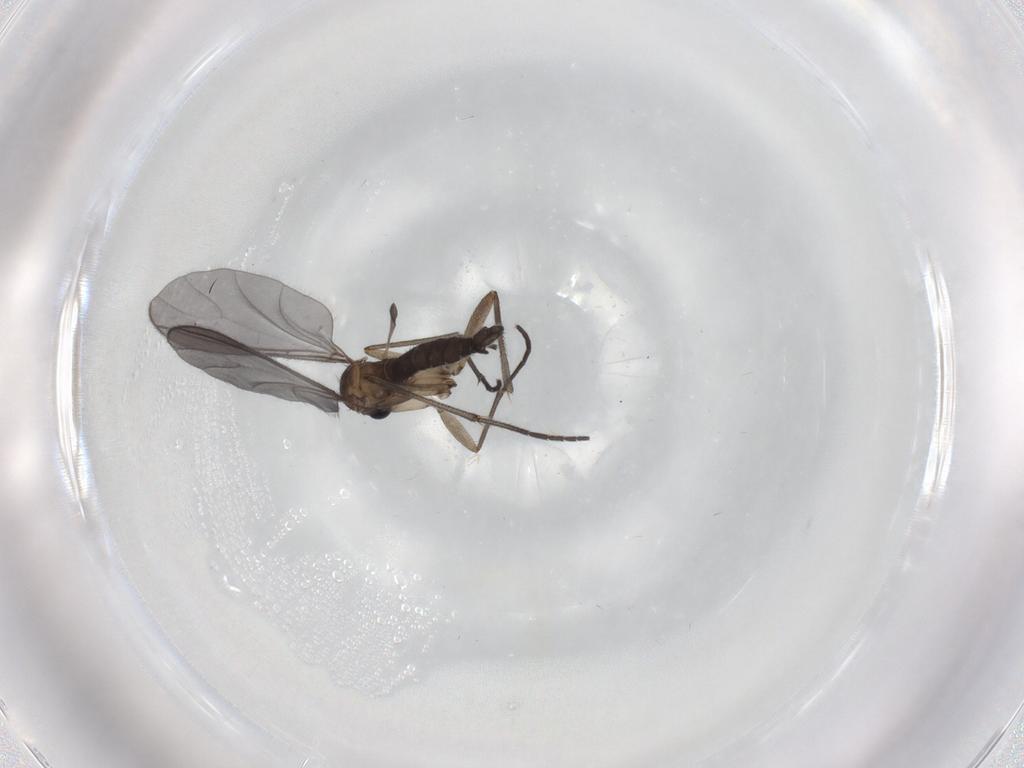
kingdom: Animalia
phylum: Arthropoda
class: Insecta
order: Diptera
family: Sciaridae
